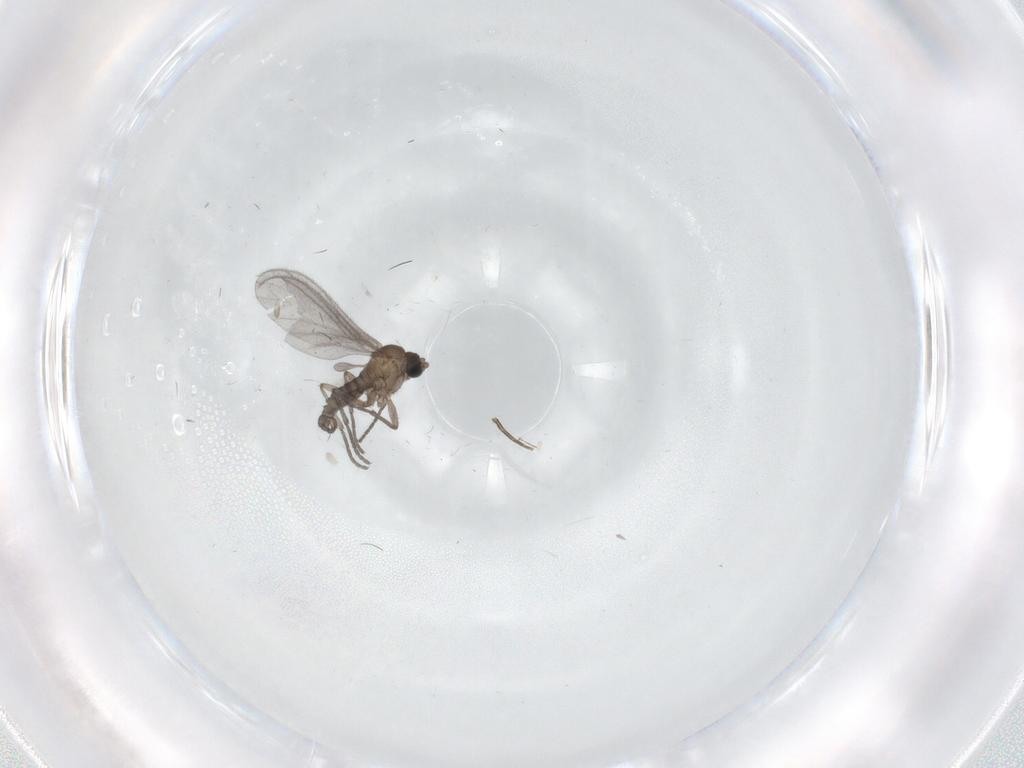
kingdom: Animalia
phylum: Arthropoda
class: Insecta
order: Diptera
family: Sciaridae
